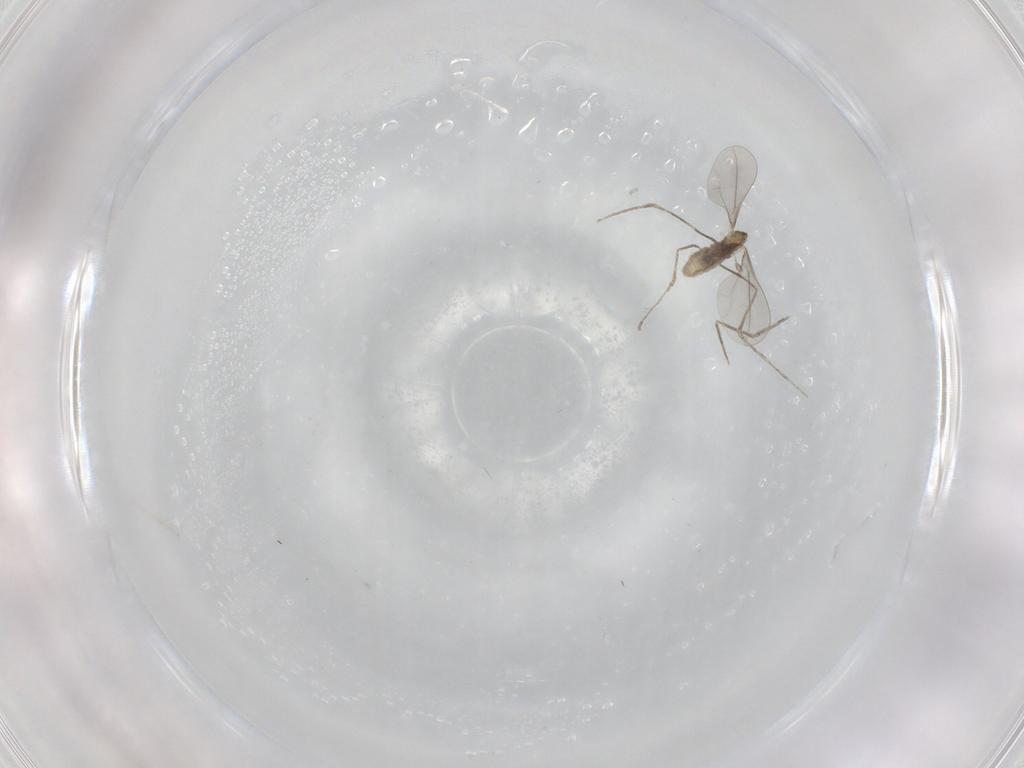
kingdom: Animalia
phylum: Arthropoda
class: Insecta
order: Diptera
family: Cecidomyiidae
